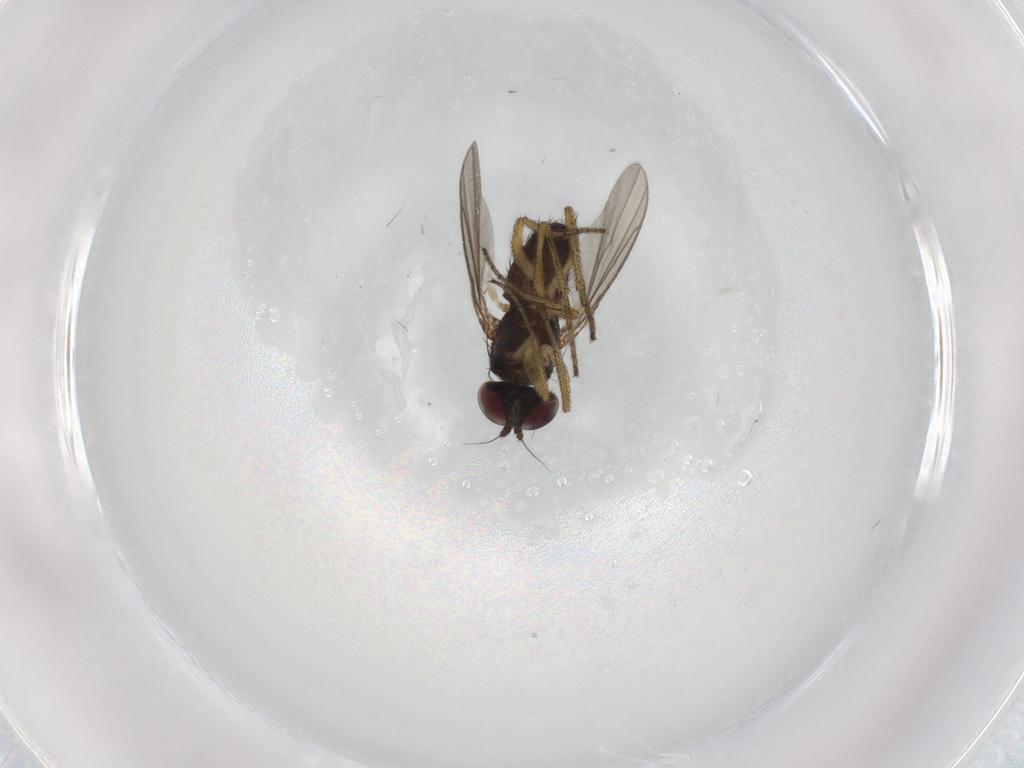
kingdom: Animalia
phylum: Arthropoda
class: Insecta
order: Diptera
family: Dolichopodidae
